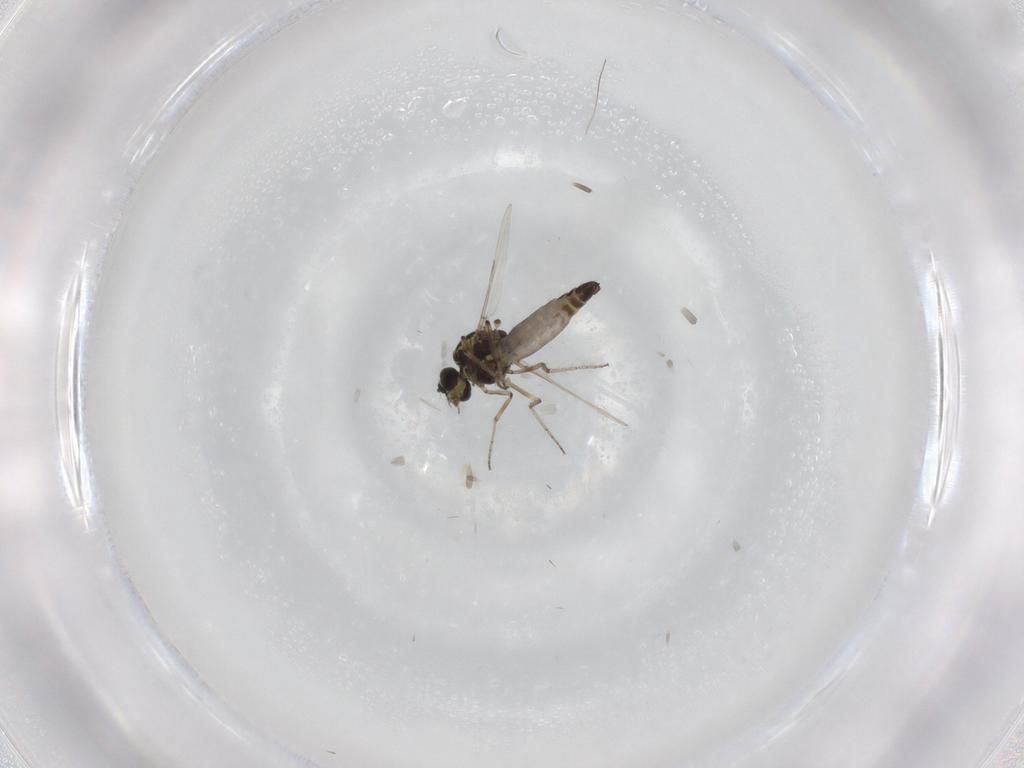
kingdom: Animalia
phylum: Arthropoda
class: Insecta
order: Diptera
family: Ceratopogonidae
